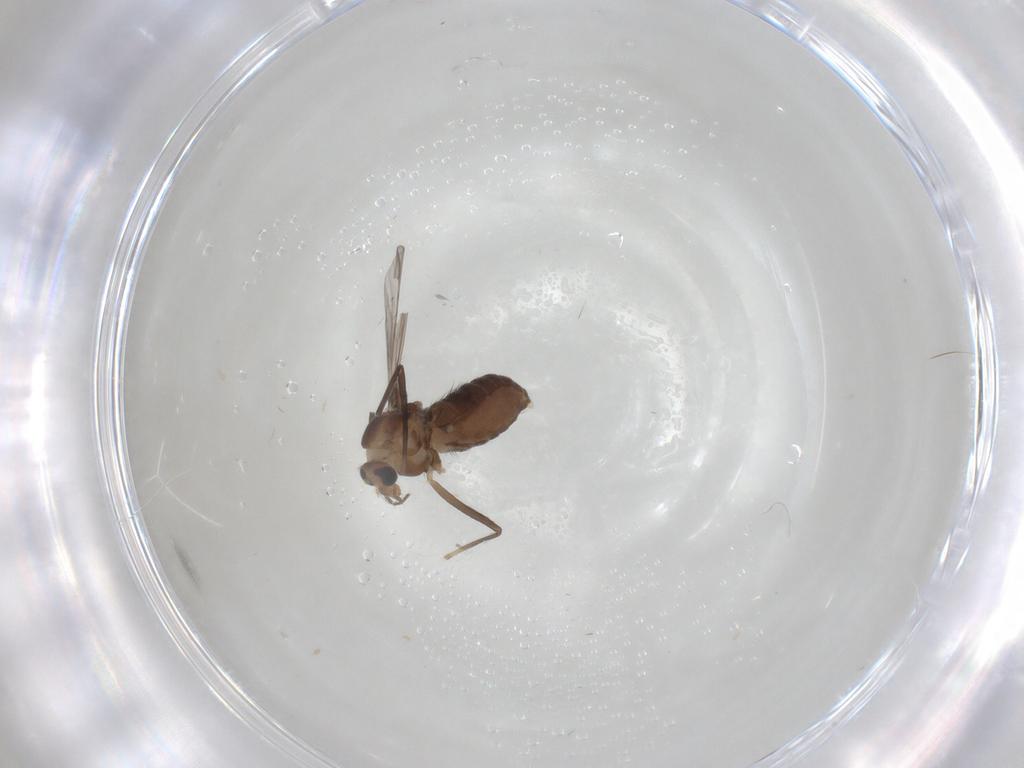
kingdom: Animalia
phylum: Arthropoda
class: Insecta
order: Diptera
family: Chironomidae
